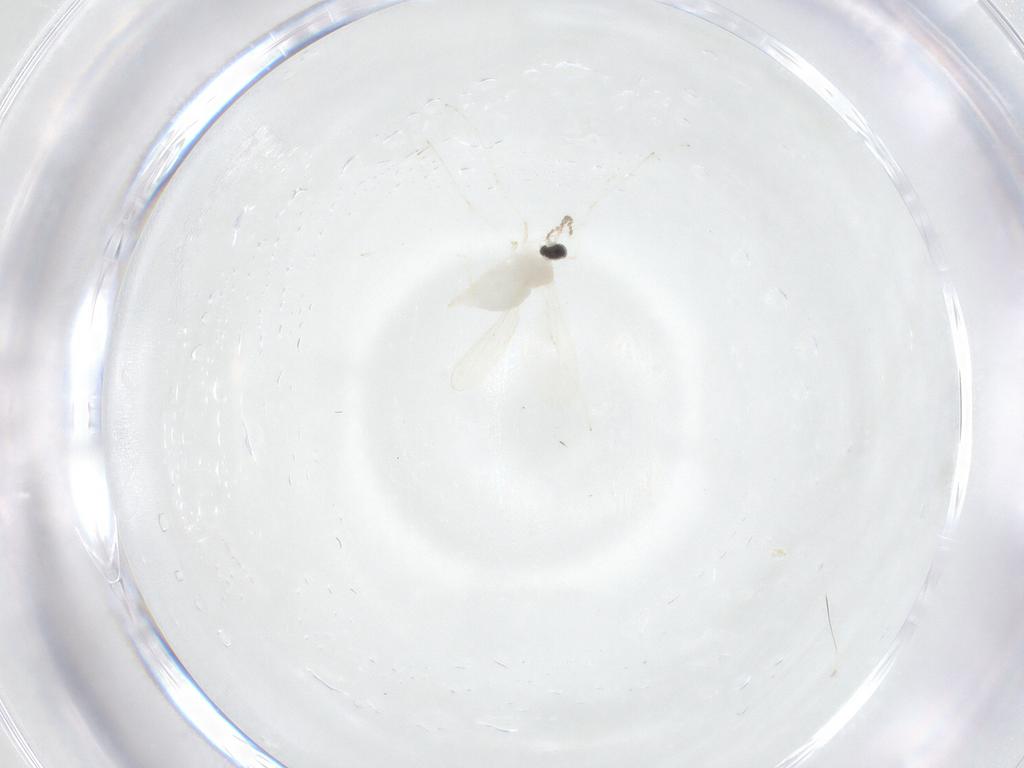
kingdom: Animalia
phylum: Arthropoda
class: Insecta
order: Diptera
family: Cecidomyiidae
